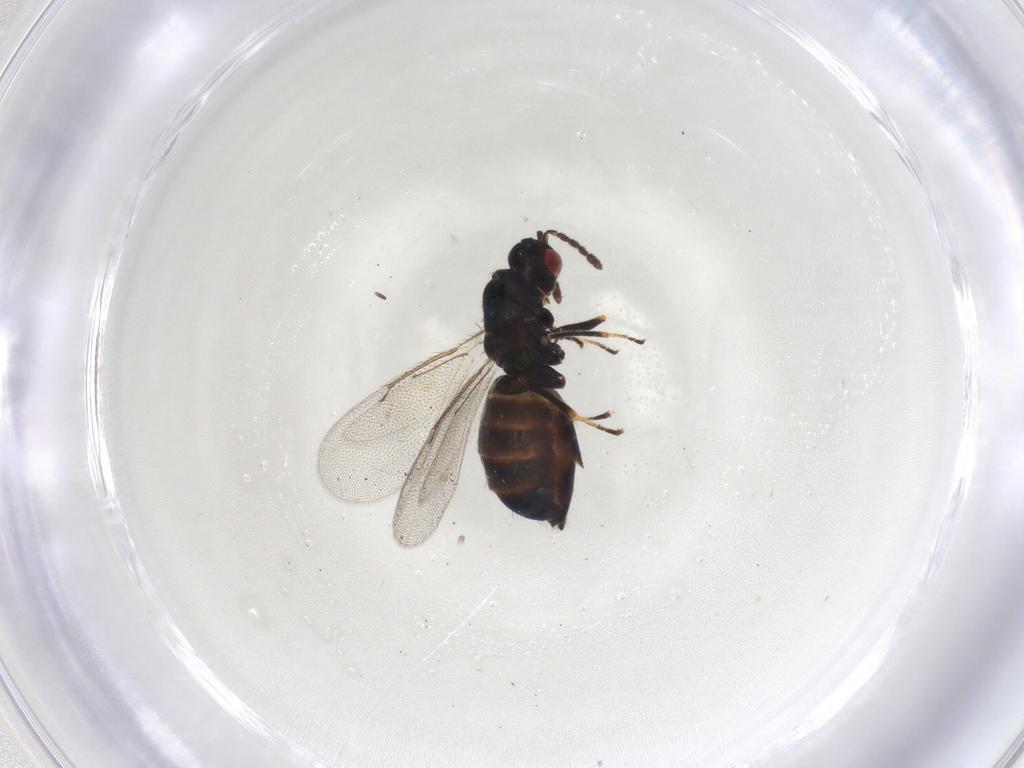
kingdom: Animalia
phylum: Arthropoda
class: Insecta
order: Hymenoptera
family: Eulophidae
